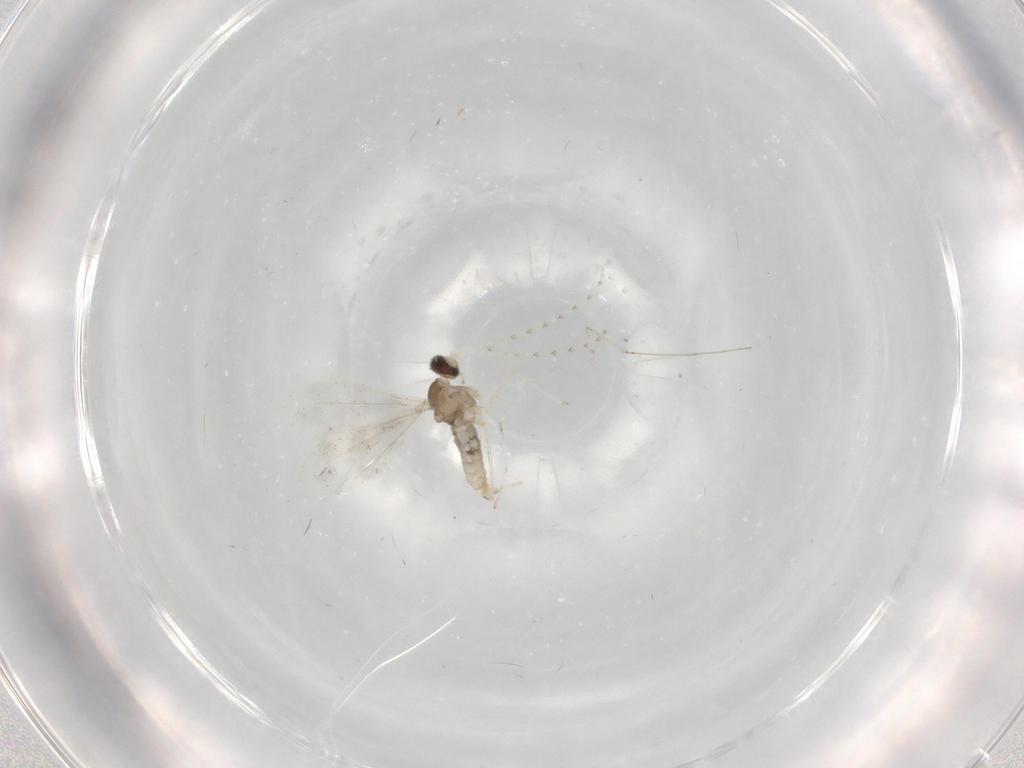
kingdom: Animalia
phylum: Arthropoda
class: Insecta
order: Diptera
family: Cecidomyiidae
